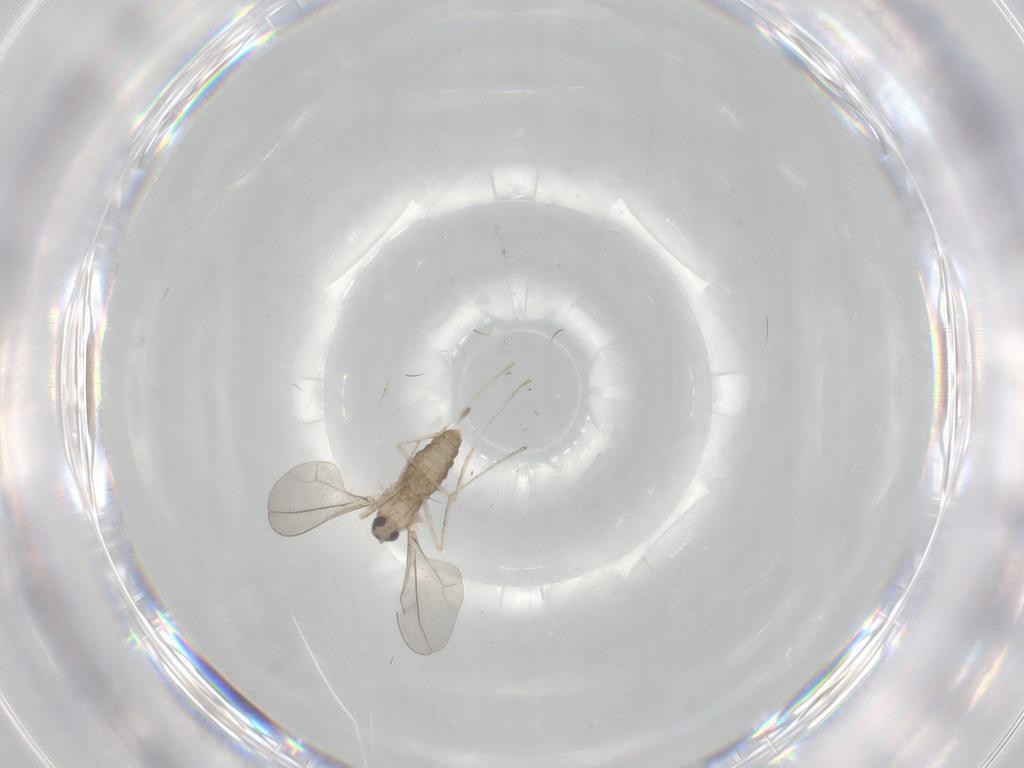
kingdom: Animalia
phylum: Arthropoda
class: Insecta
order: Diptera
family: Cecidomyiidae
